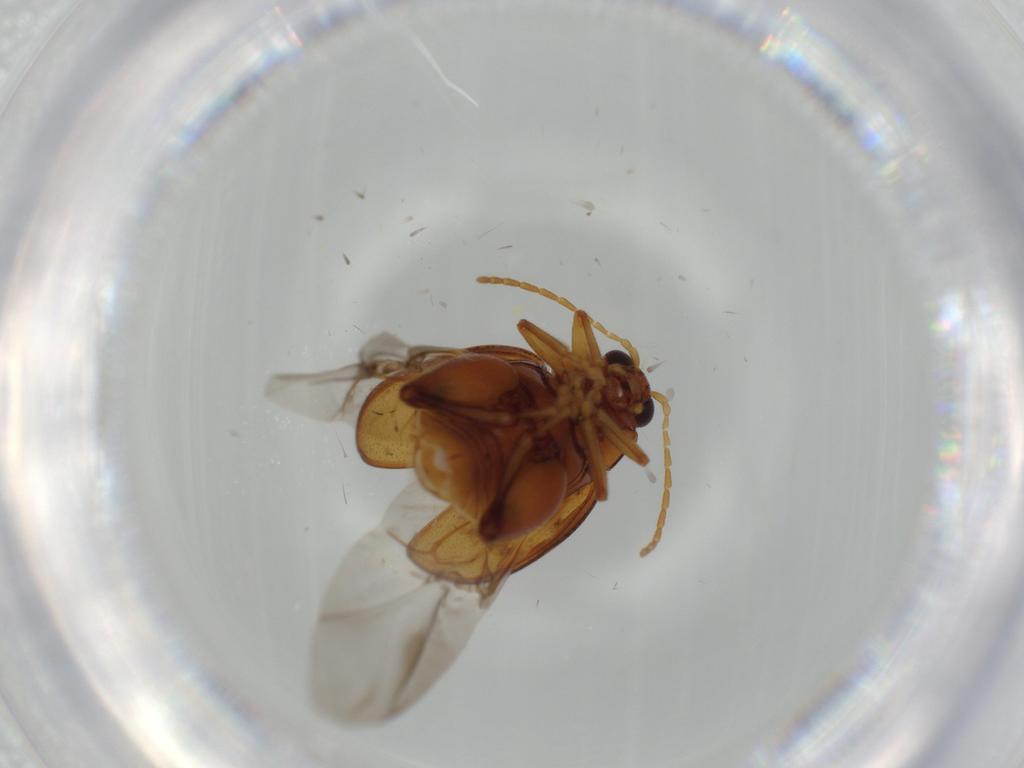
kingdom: Animalia
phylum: Arthropoda
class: Insecta
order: Coleoptera
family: Chrysomelidae
